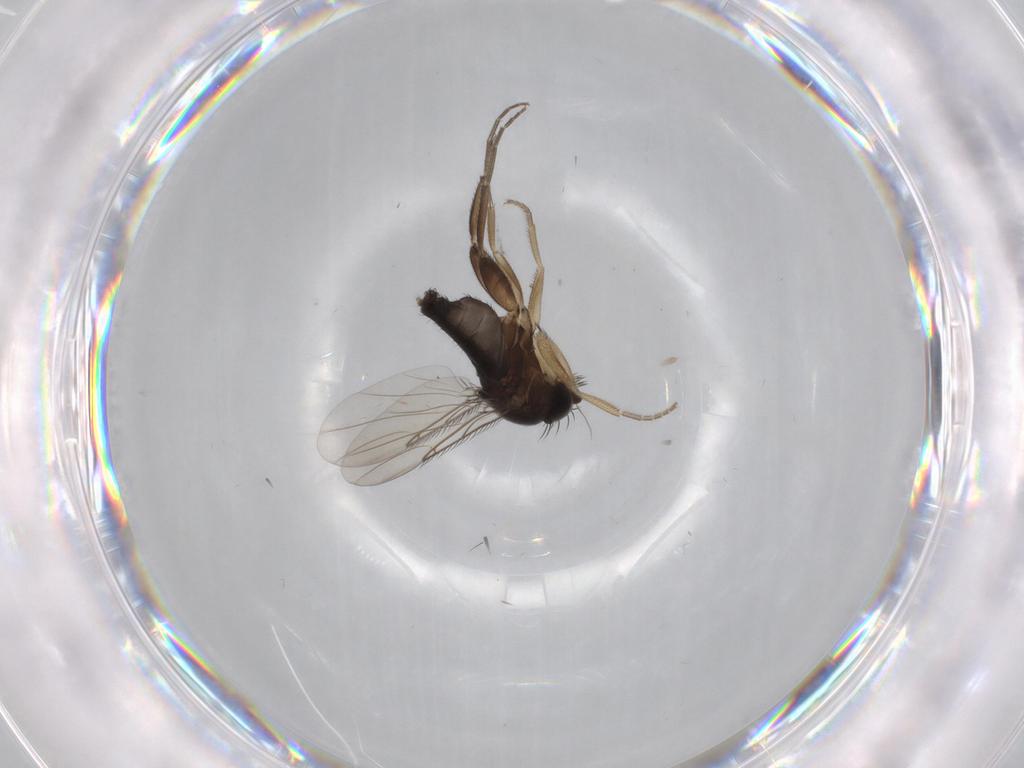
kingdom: Animalia
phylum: Arthropoda
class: Insecta
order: Diptera
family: Phoridae
